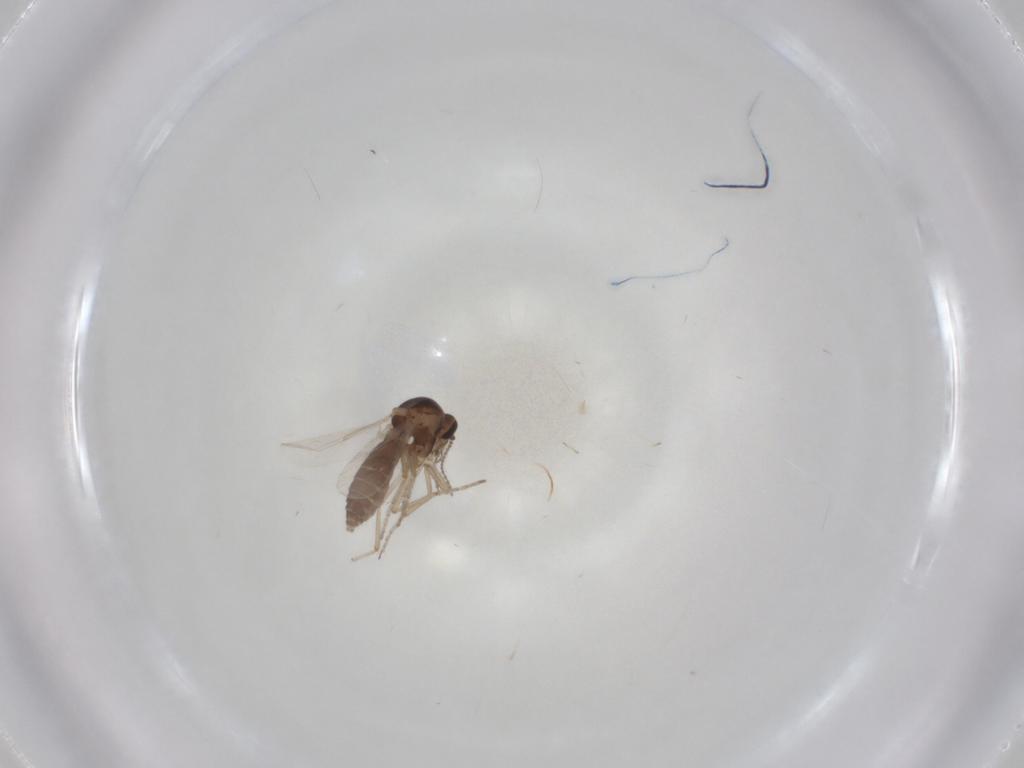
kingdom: Animalia
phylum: Arthropoda
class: Insecta
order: Diptera
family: Ceratopogonidae
